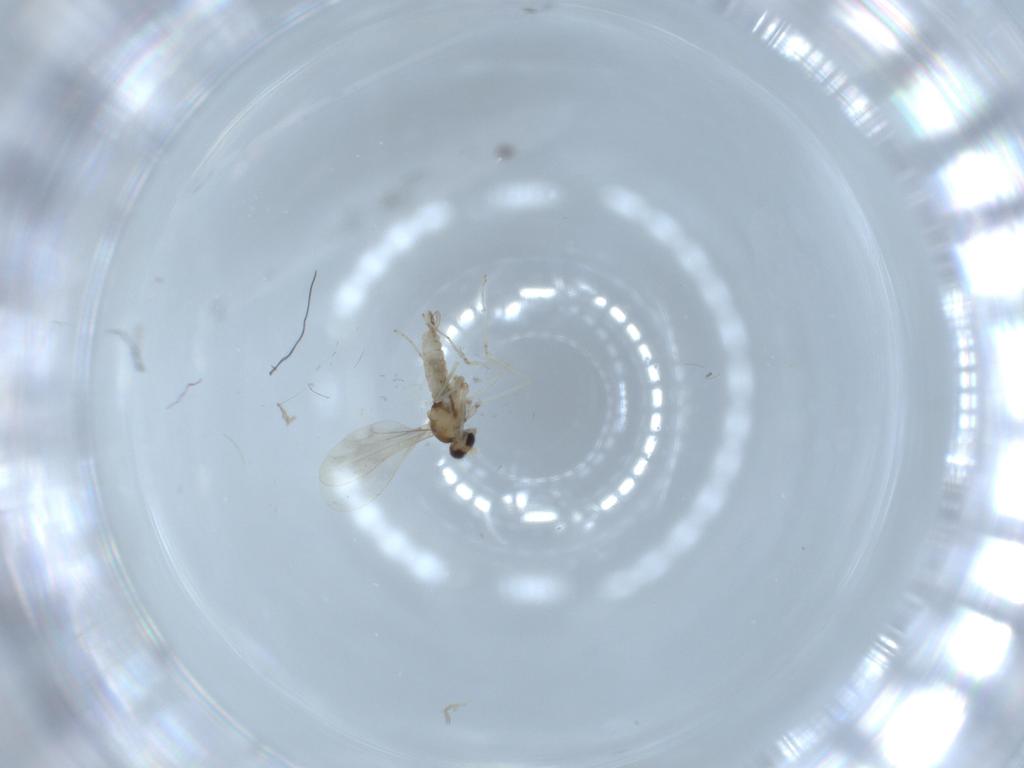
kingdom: Animalia
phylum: Arthropoda
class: Insecta
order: Diptera
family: Cecidomyiidae
